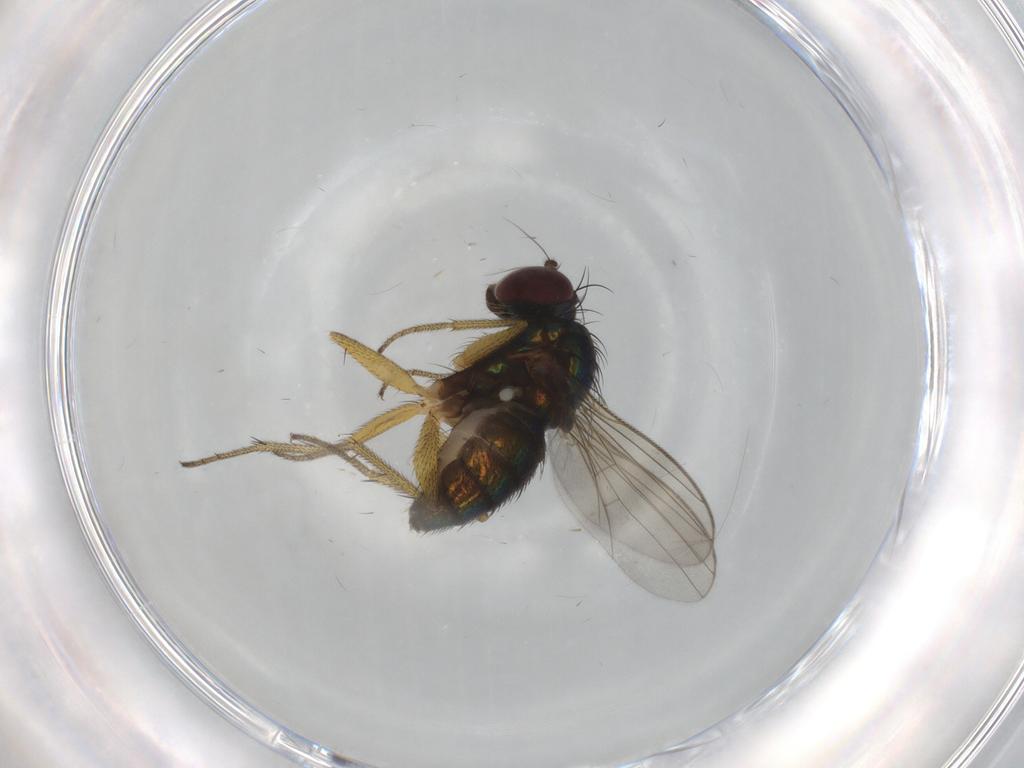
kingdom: Animalia
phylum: Arthropoda
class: Insecta
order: Diptera
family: Dolichopodidae
